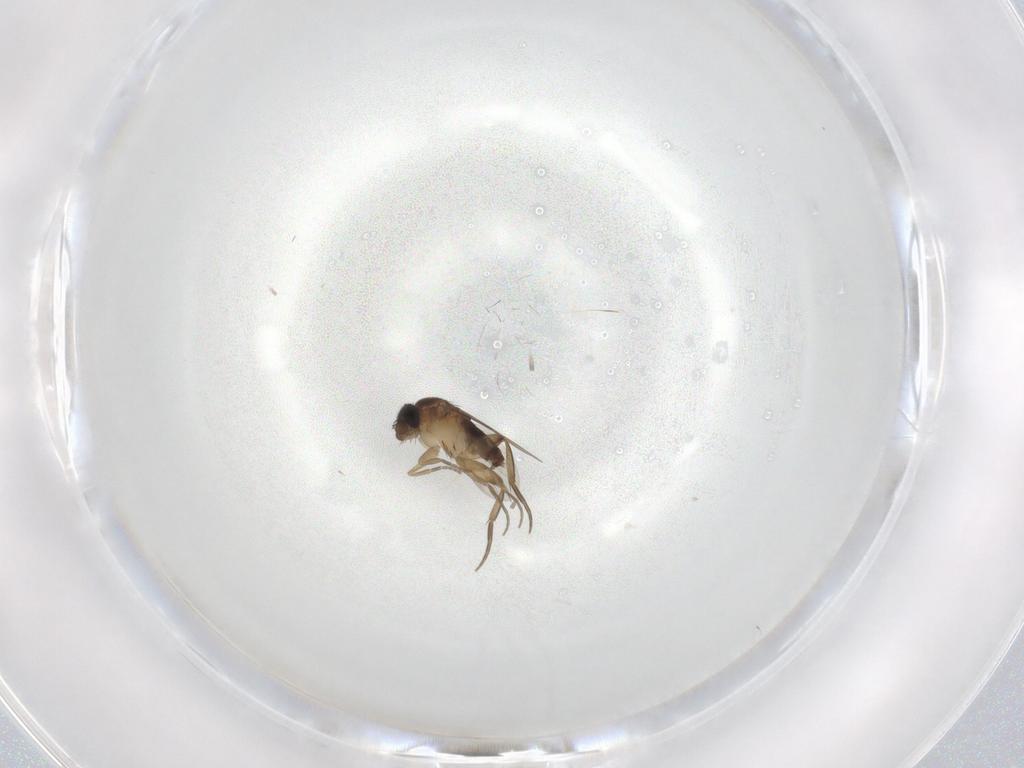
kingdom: Animalia
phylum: Arthropoda
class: Insecta
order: Diptera
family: Phoridae
